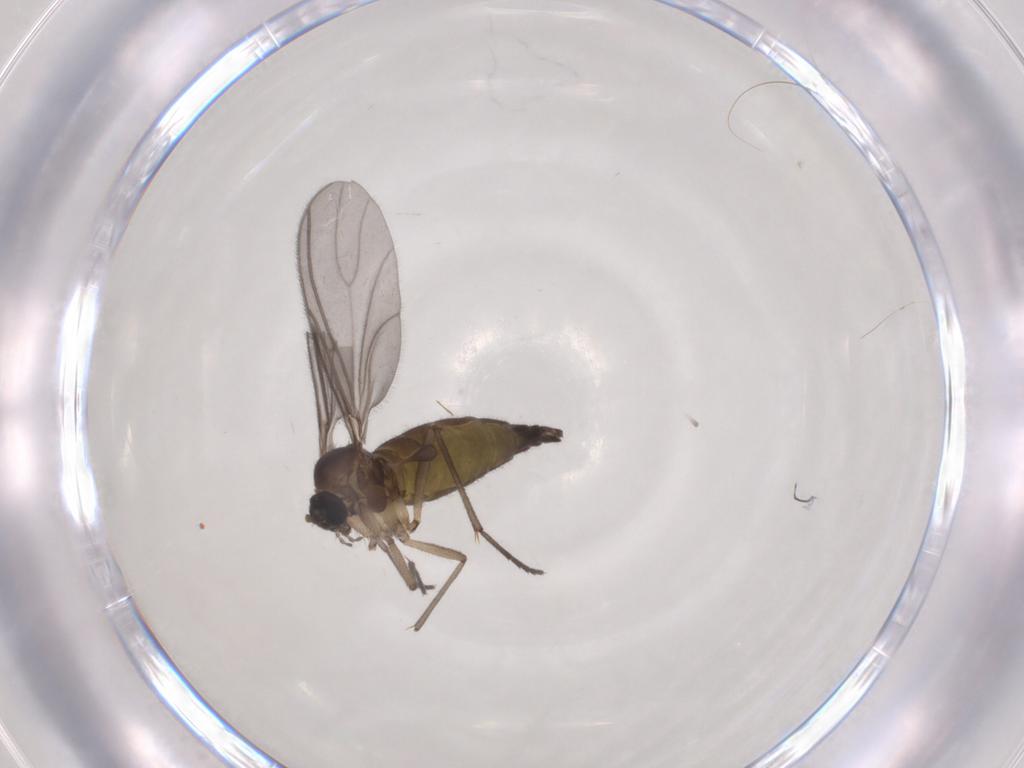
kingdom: Animalia
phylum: Arthropoda
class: Insecta
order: Diptera
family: Sciaridae
